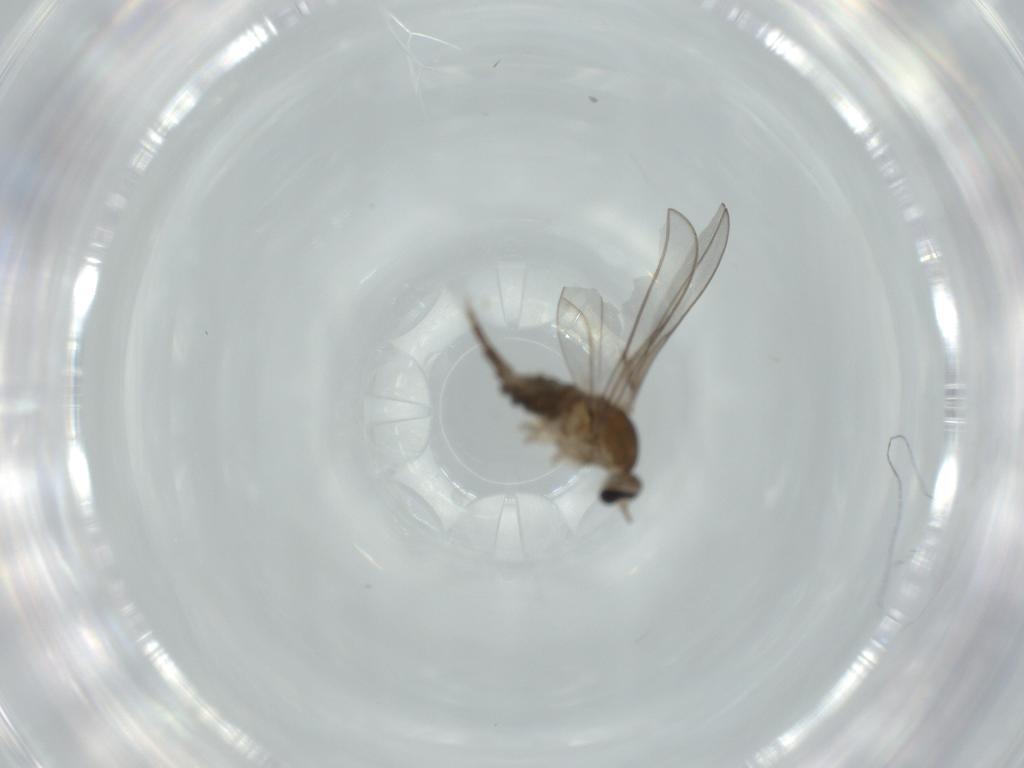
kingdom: Animalia
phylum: Arthropoda
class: Insecta
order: Diptera
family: Cecidomyiidae
